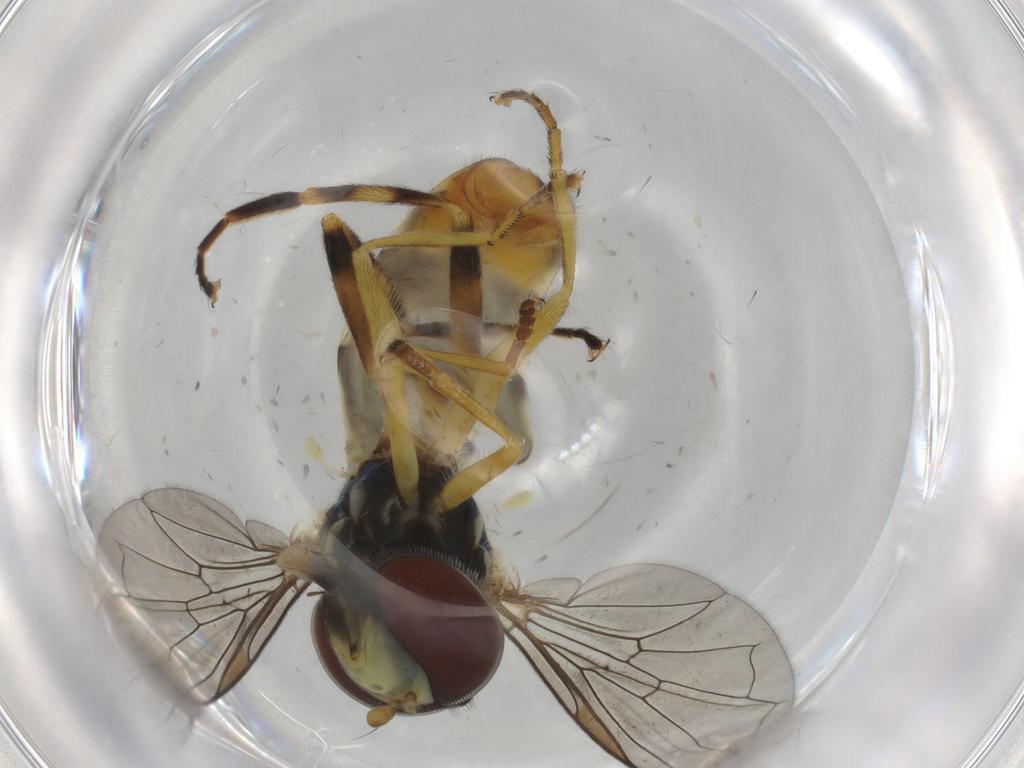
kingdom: Animalia
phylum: Arthropoda
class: Insecta
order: Diptera
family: Syrphidae
